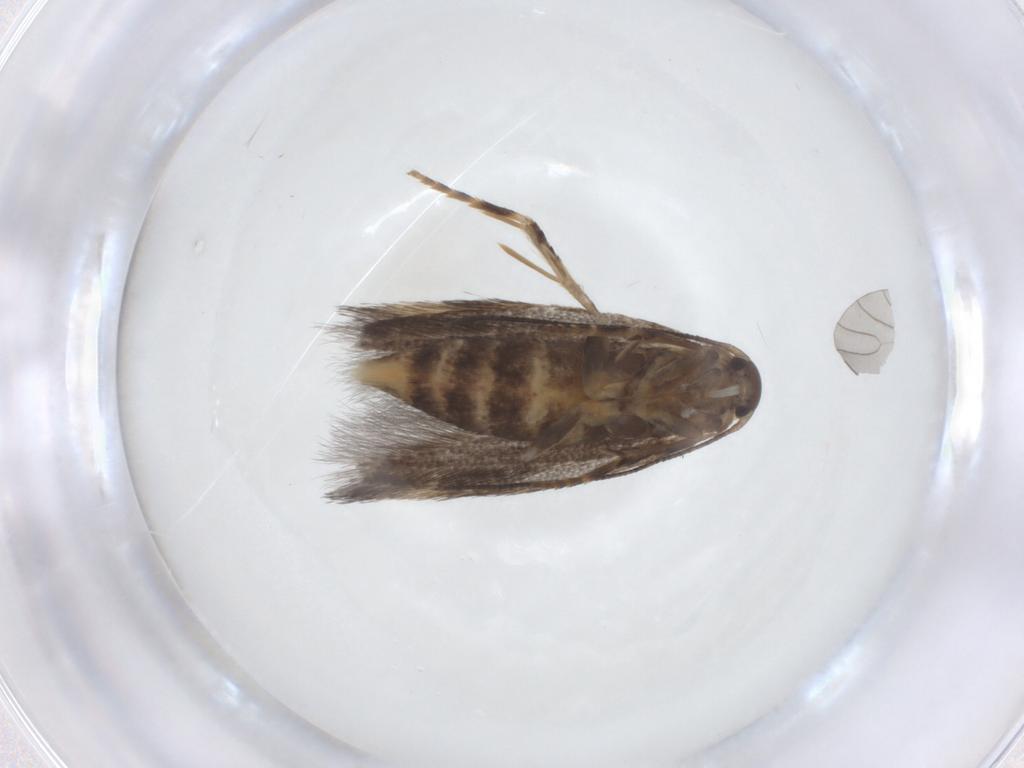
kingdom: Animalia
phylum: Arthropoda
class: Insecta
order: Lepidoptera
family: Elachistidae
